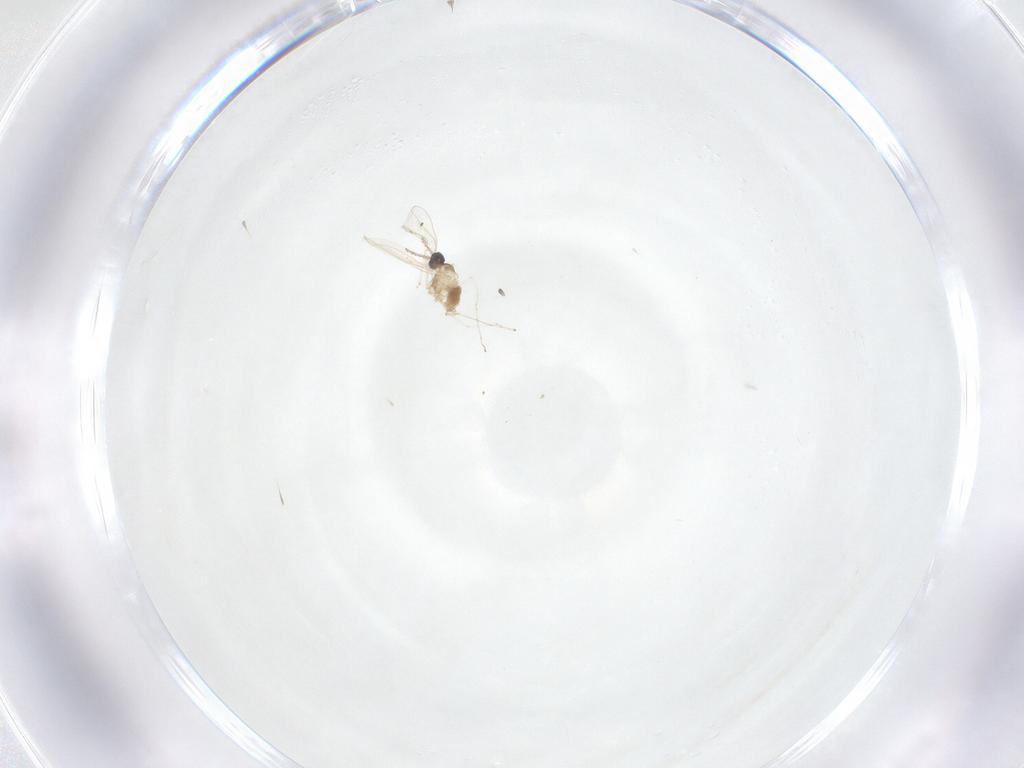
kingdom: Animalia
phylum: Arthropoda
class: Insecta
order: Diptera
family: Cecidomyiidae
